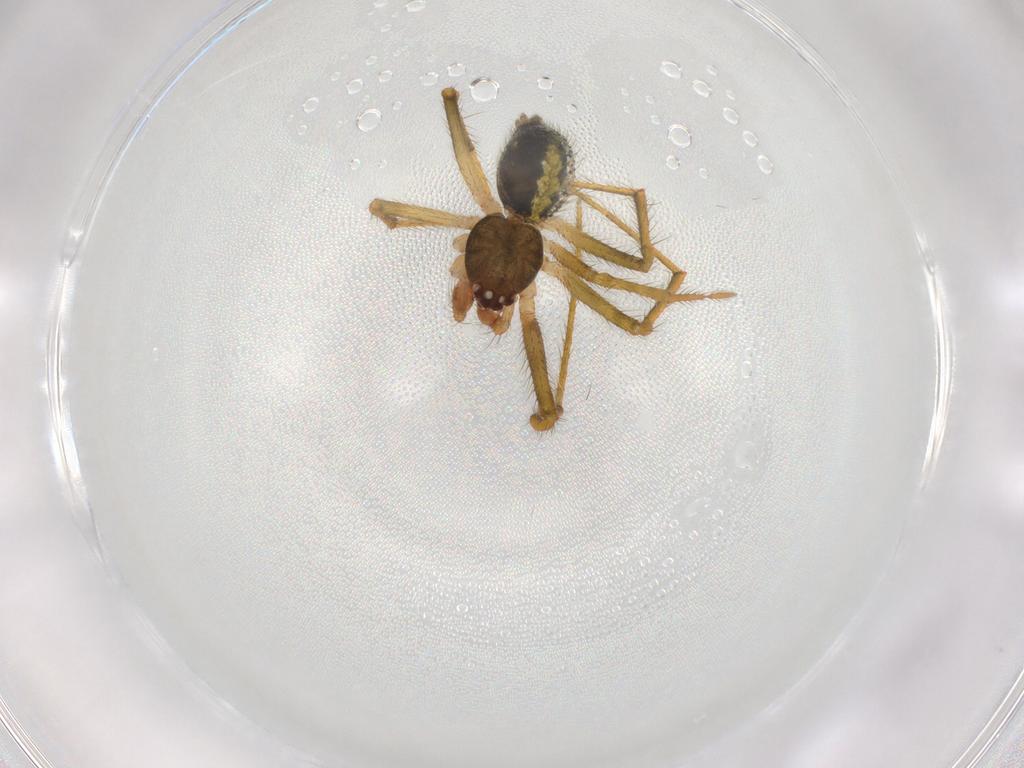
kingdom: Animalia
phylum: Arthropoda
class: Arachnida
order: Araneae
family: Theridiidae
